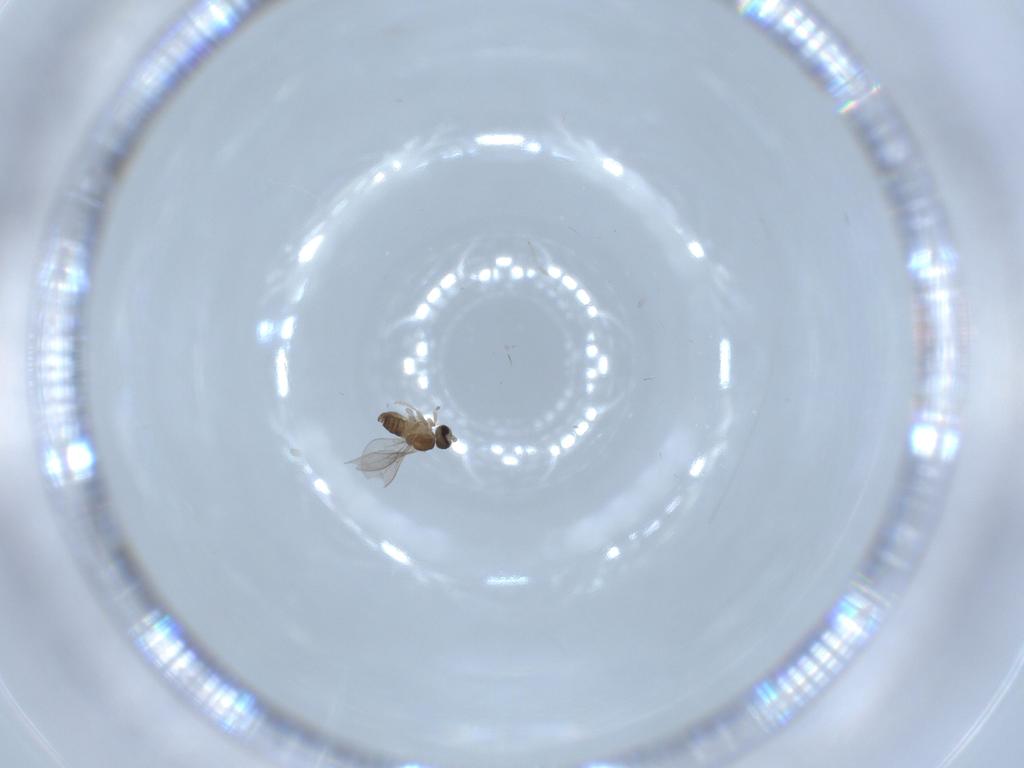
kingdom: Animalia
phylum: Arthropoda
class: Insecta
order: Diptera
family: Cecidomyiidae
